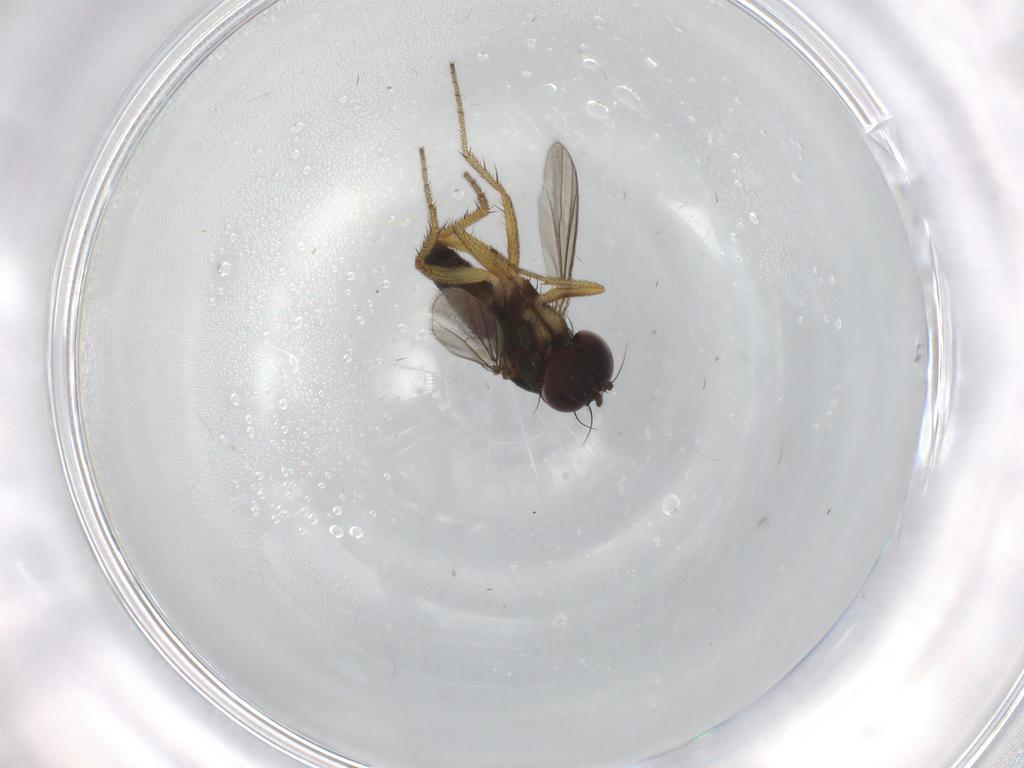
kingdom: Animalia
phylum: Arthropoda
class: Insecta
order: Diptera
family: Dolichopodidae
